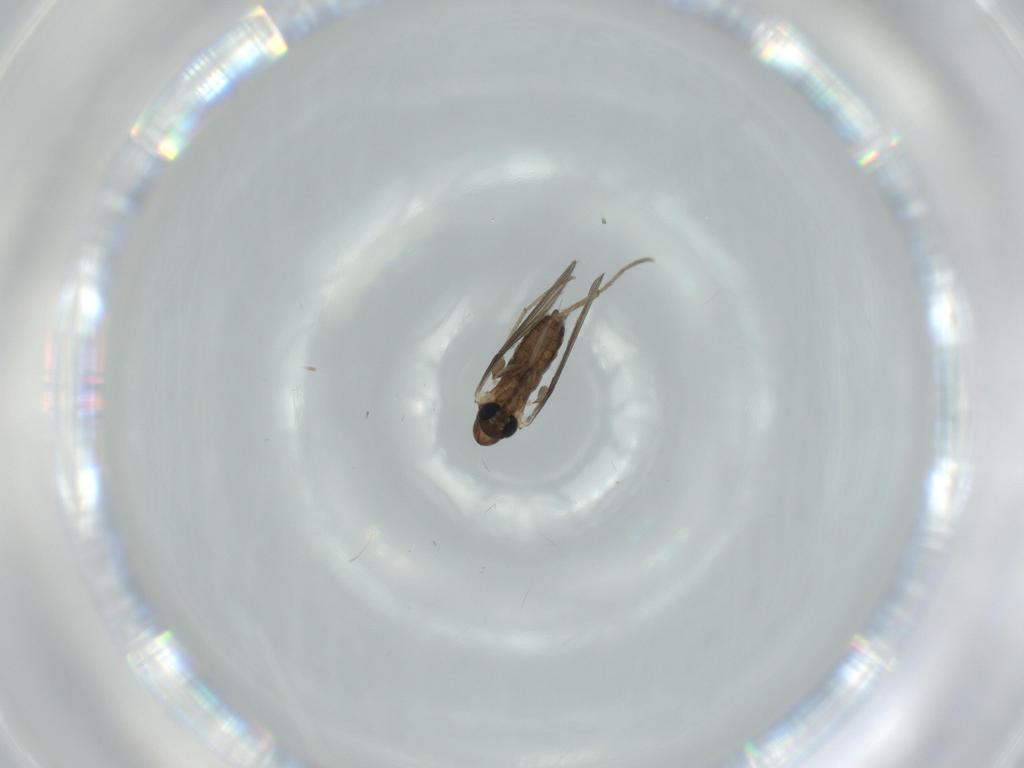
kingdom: Animalia
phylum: Arthropoda
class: Insecta
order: Diptera
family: Psychodidae
